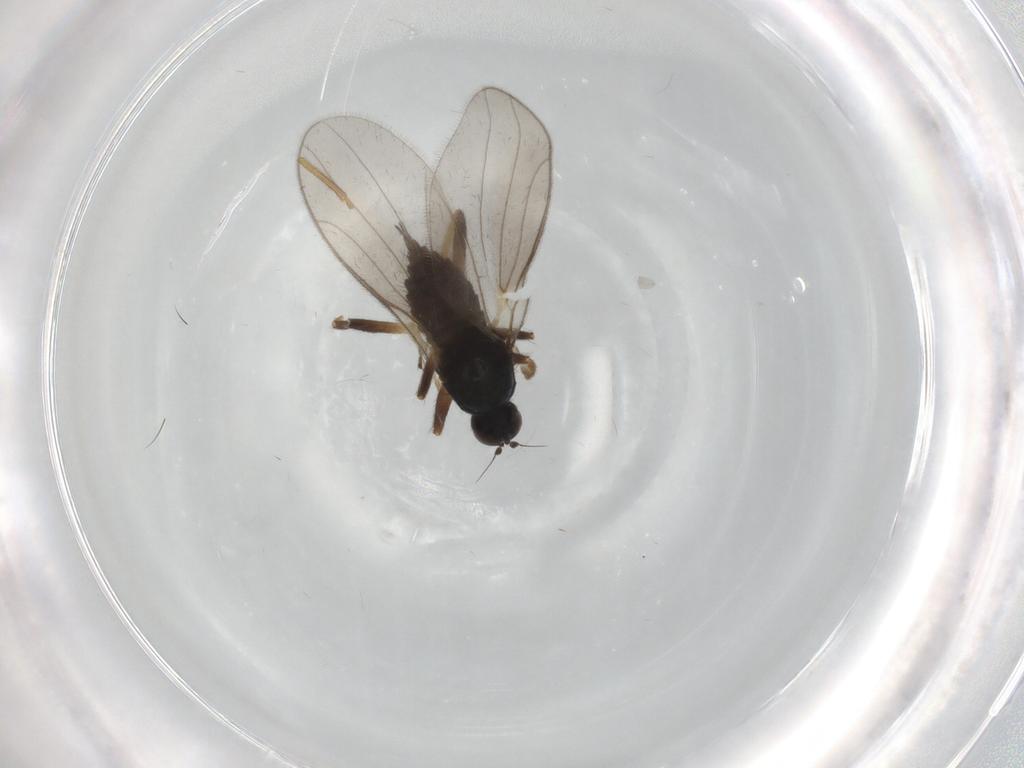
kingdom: Animalia
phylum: Arthropoda
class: Insecta
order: Diptera
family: Hybotidae
